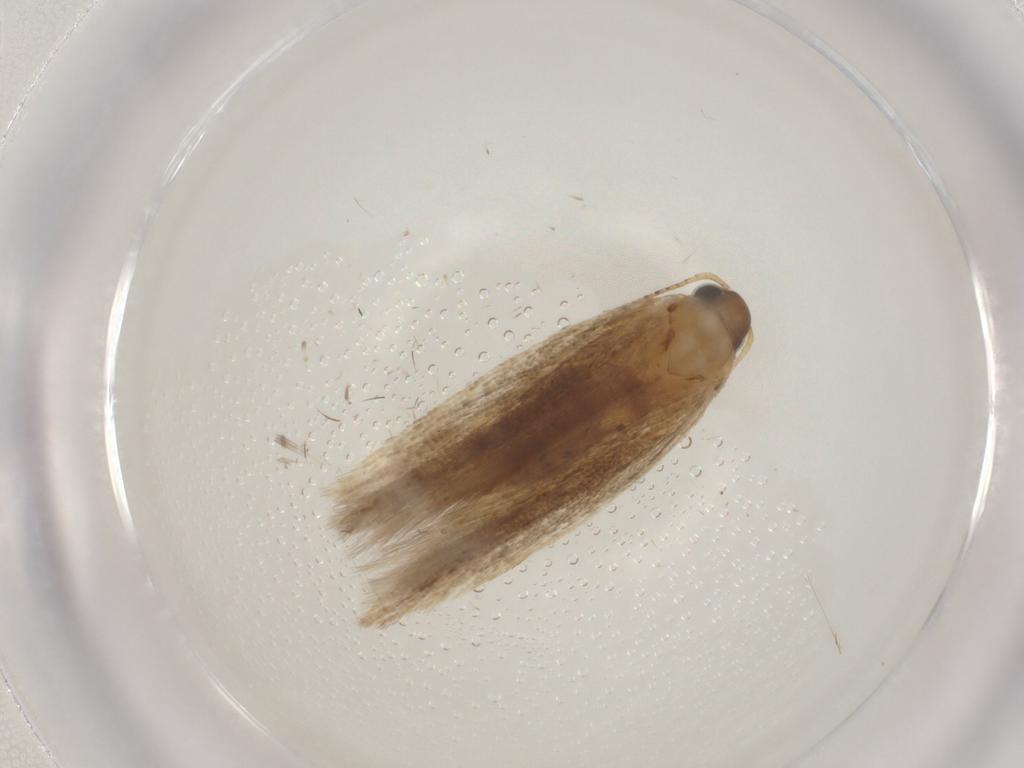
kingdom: Animalia
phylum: Arthropoda
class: Insecta
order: Lepidoptera
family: Gelechiidae
